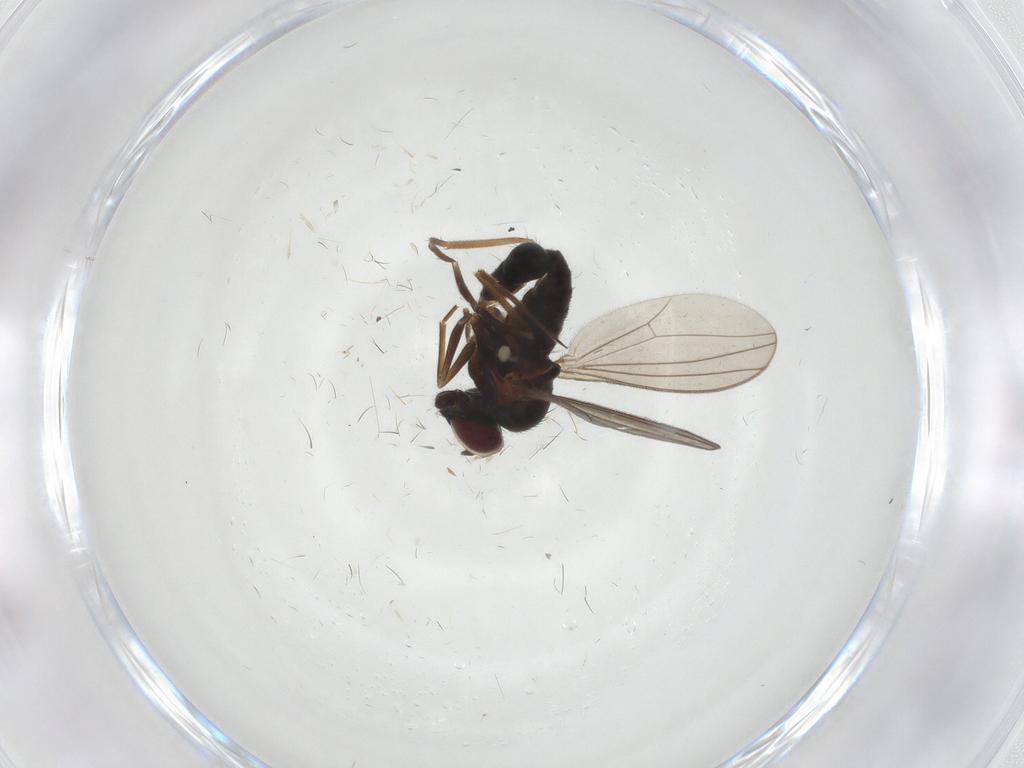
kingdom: Animalia
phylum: Arthropoda
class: Insecta
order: Diptera
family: Dolichopodidae
